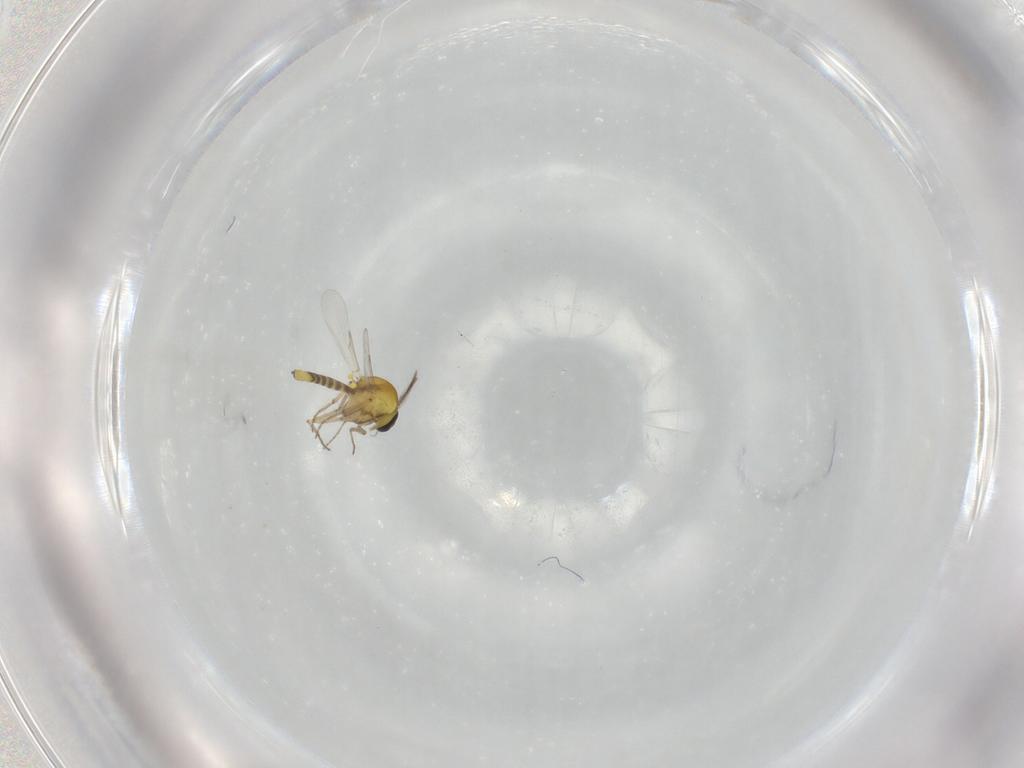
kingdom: Animalia
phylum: Arthropoda
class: Insecta
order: Diptera
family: Ceratopogonidae
